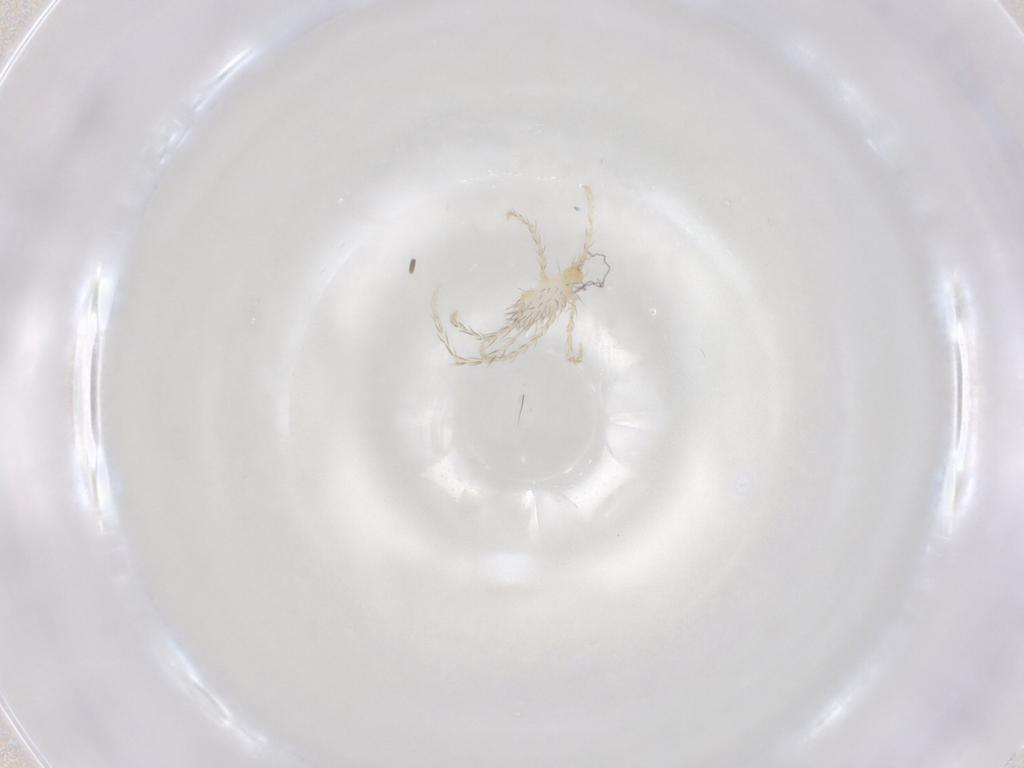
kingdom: Animalia
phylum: Arthropoda
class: Arachnida
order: Trombidiformes
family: Erythraeidae
